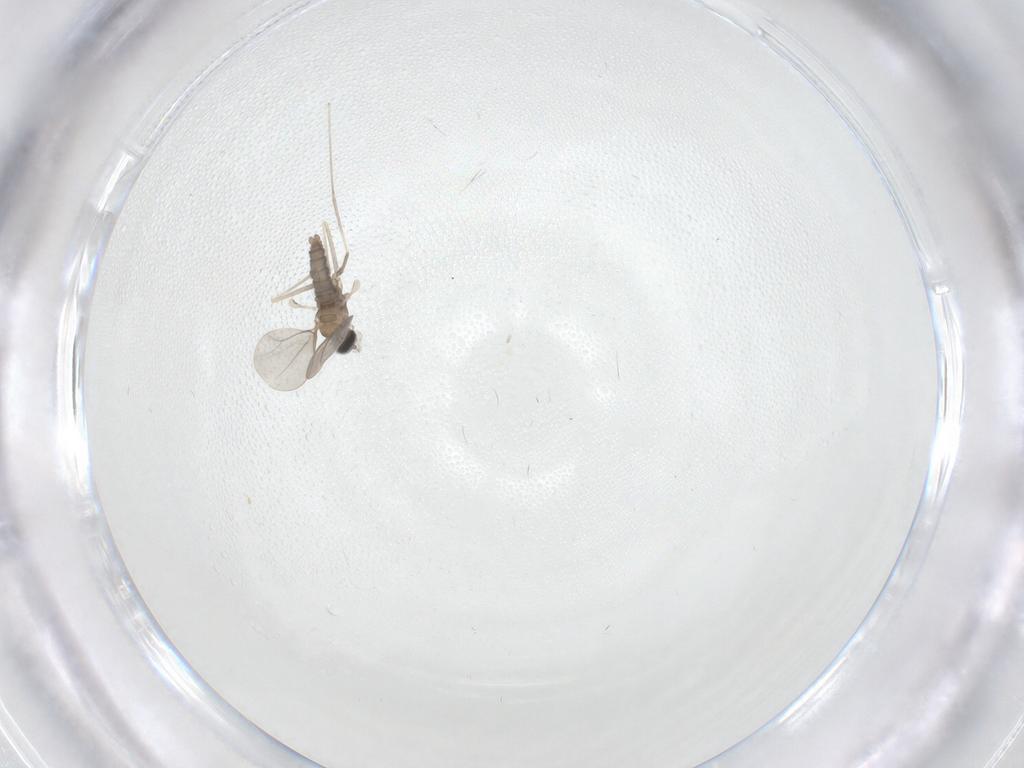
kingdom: Animalia
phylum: Arthropoda
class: Insecta
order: Diptera
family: Cecidomyiidae
